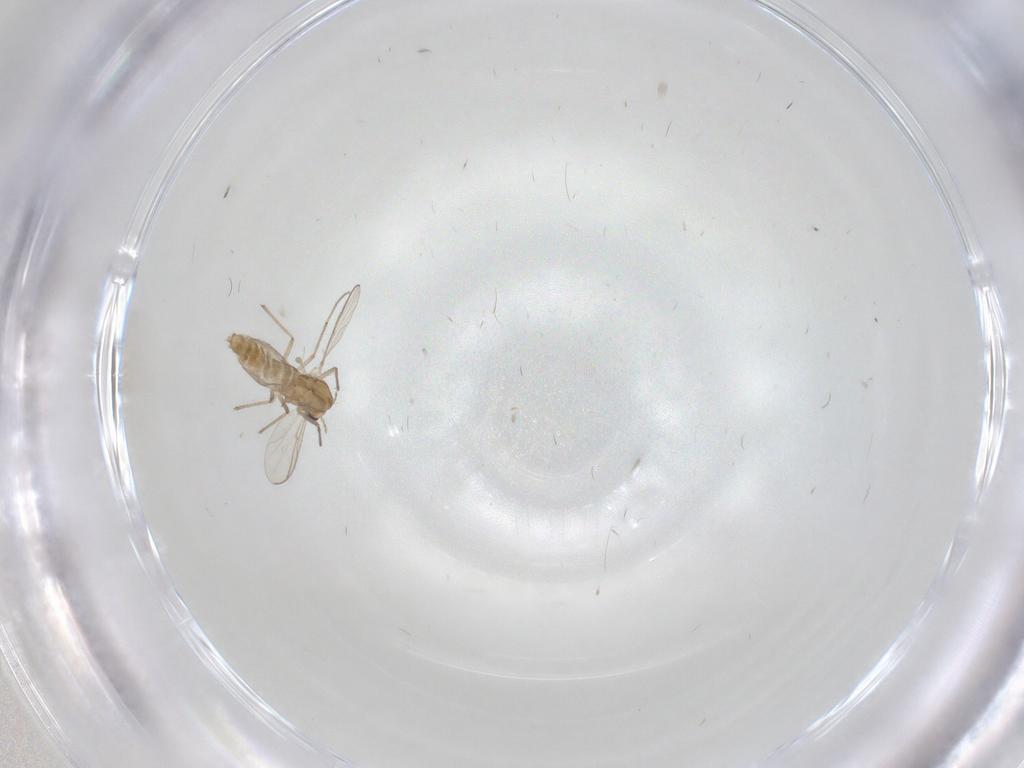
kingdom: Animalia
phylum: Arthropoda
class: Insecta
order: Diptera
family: Chironomidae
